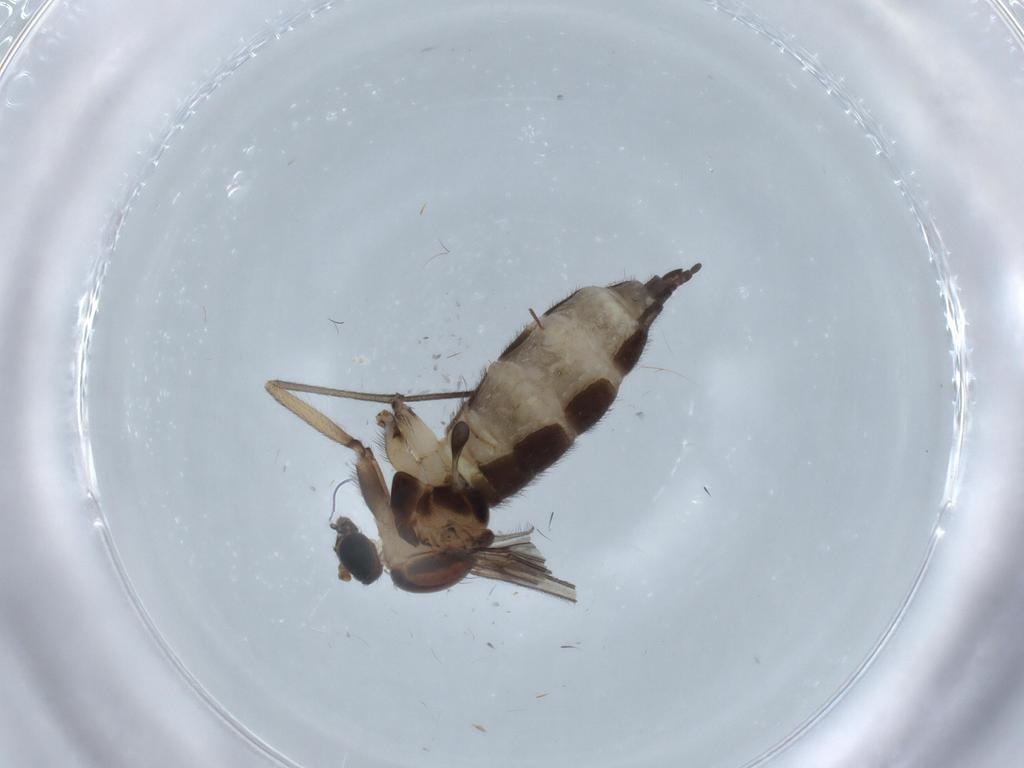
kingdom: Animalia
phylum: Arthropoda
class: Insecta
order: Diptera
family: Sciaridae
